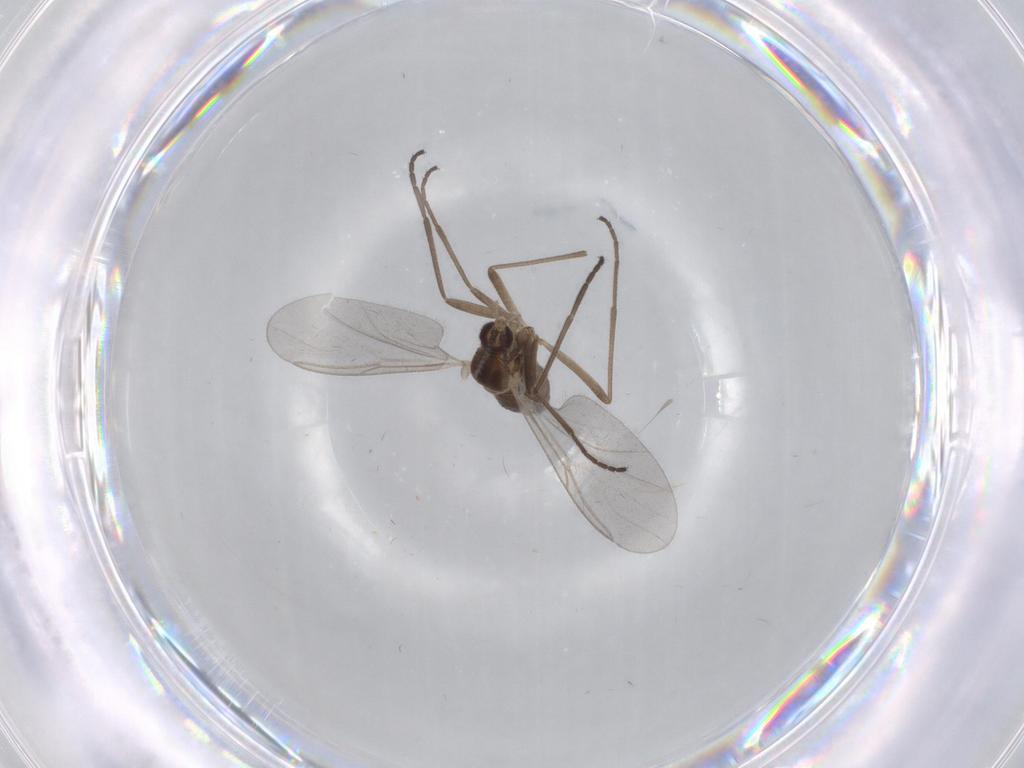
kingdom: Animalia
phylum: Arthropoda
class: Insecta
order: Diptera
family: Cecidomyiidae
